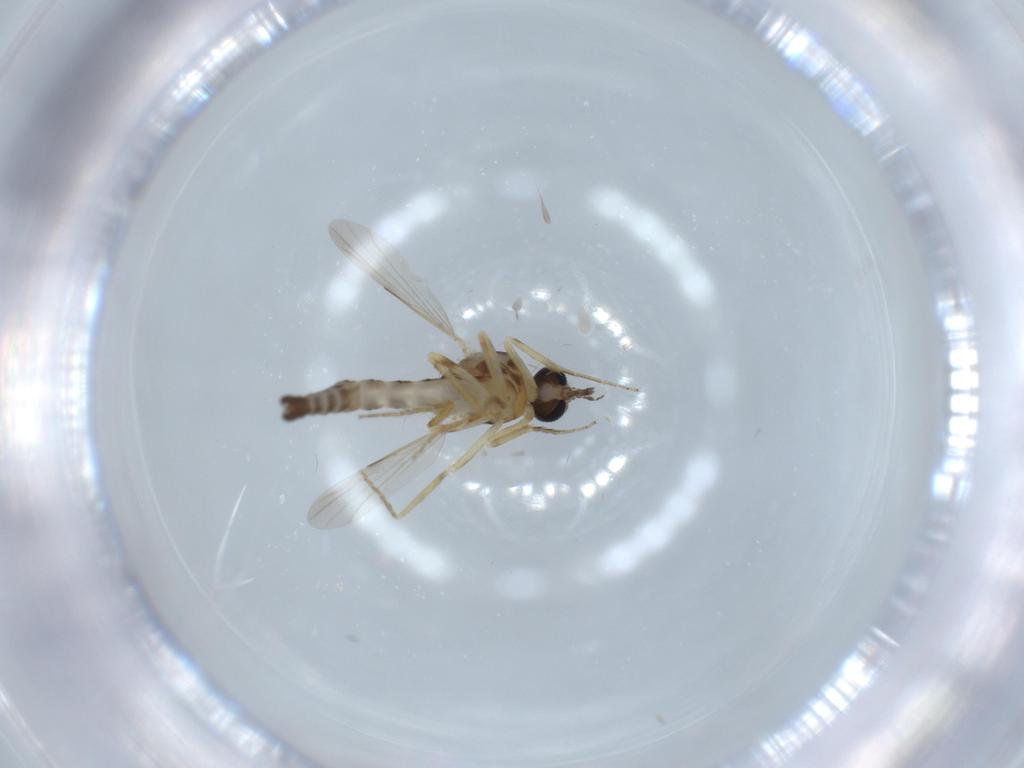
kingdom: Animalia
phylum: Arthropoda
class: Insecta
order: Diptera
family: Ceratopogonidae
